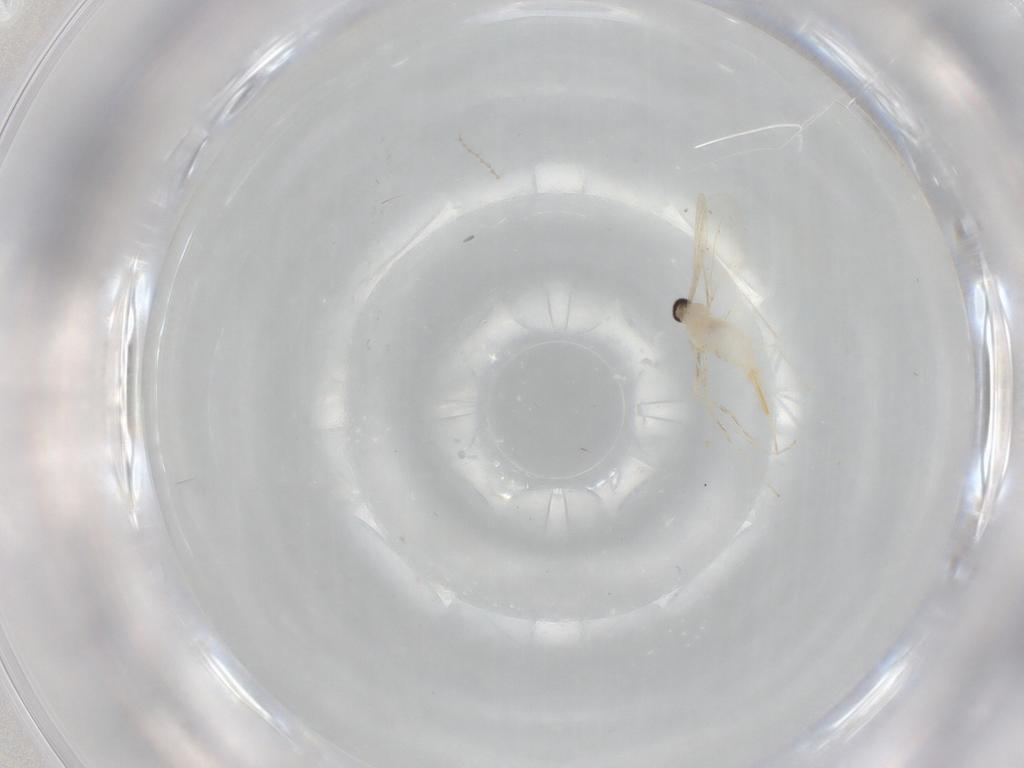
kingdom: Animalia
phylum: Arthropoda
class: Insecta
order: Diptera
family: Cecidomyiidae
